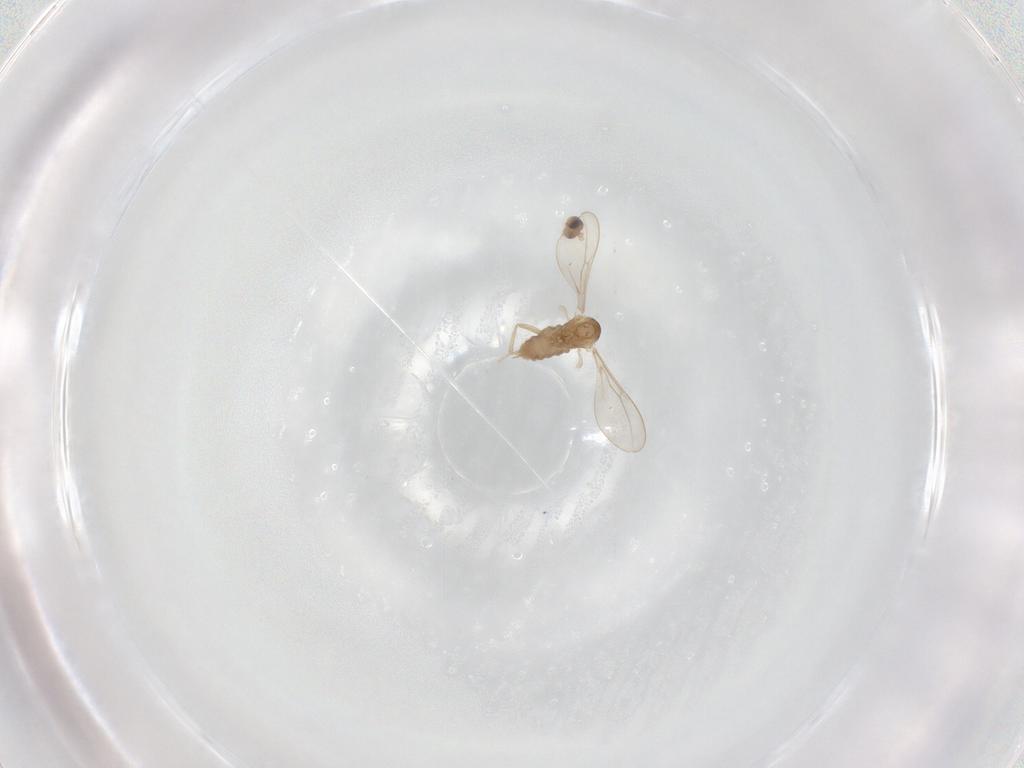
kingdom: Animalia
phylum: Arthropoda
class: Insecta
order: Diptera
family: Cecidomyiidae
